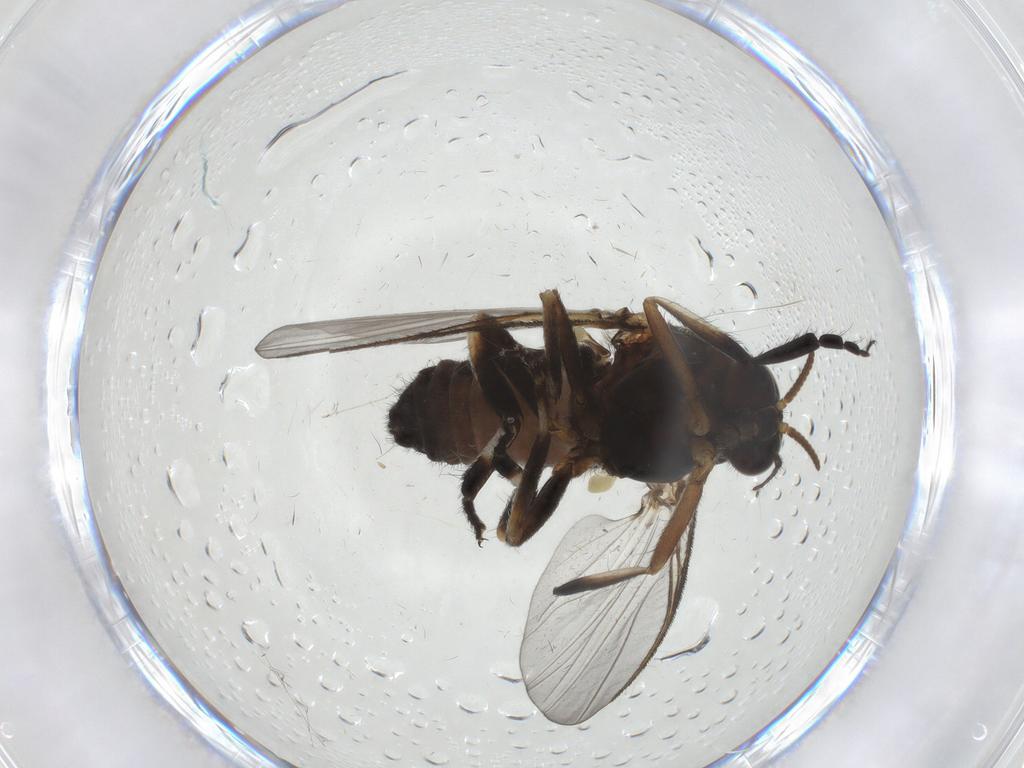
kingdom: Animalia
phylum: Arthropoda
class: Insecta
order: Diptera
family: Cecidomyiidae
